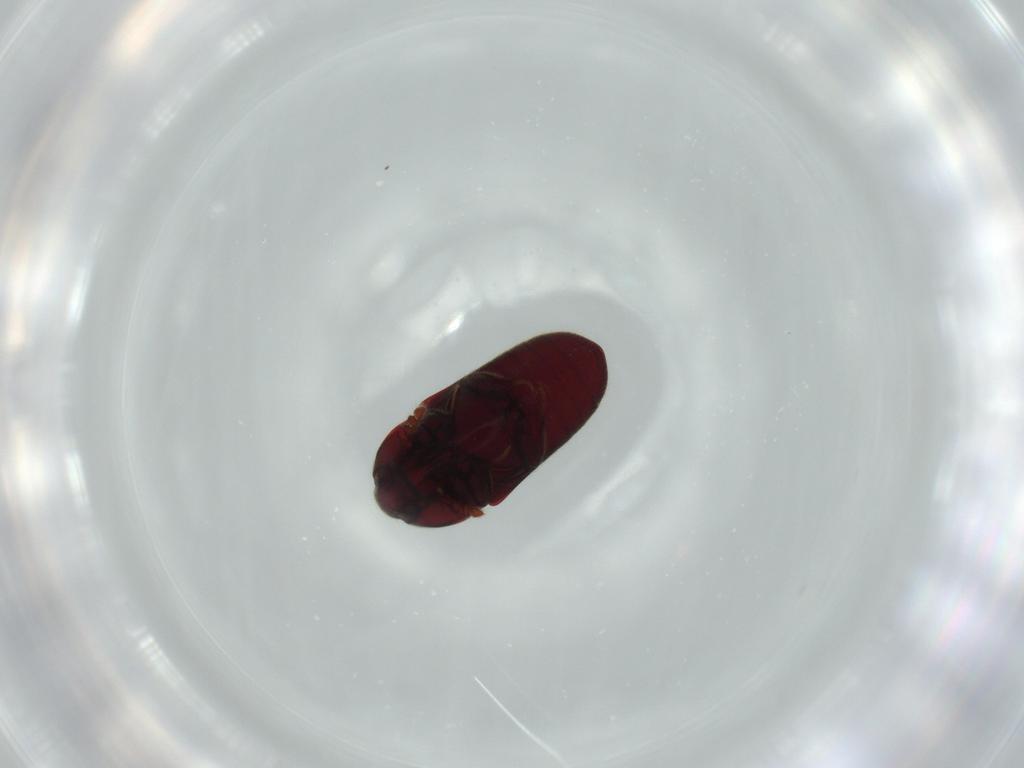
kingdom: Animalia
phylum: Arthropoda
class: Insecta
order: Coleoptera
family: Throscidae
